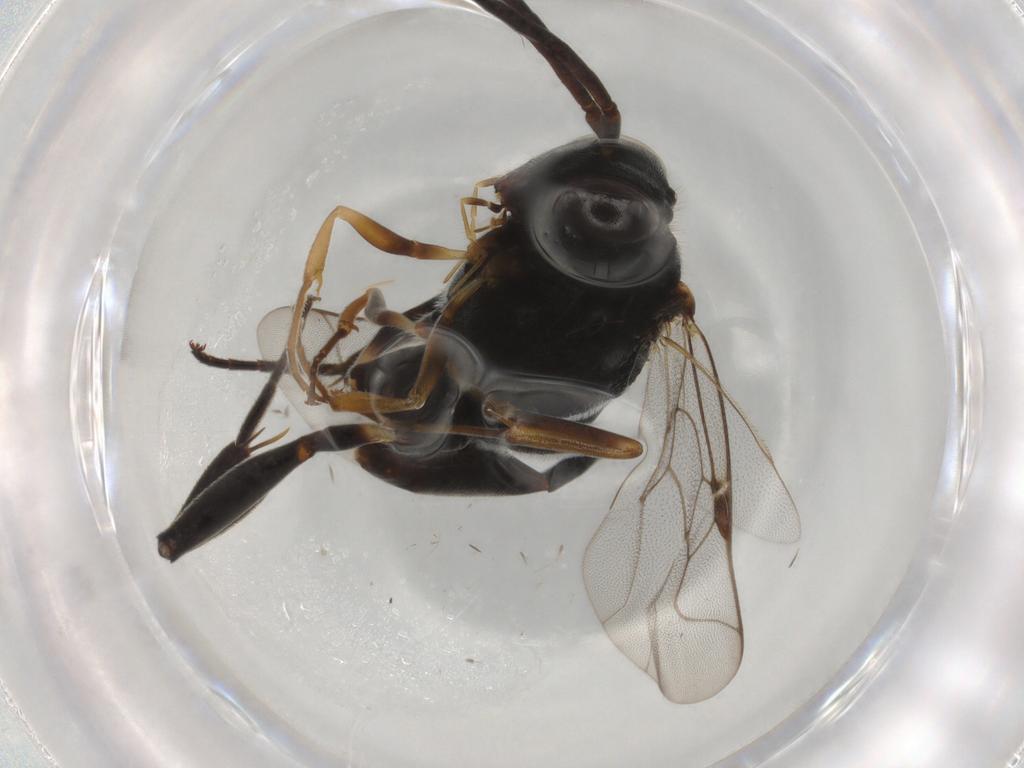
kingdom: Animalia
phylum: Arthropoda
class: Insecta
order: Hymenoptera
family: Evaniidae
